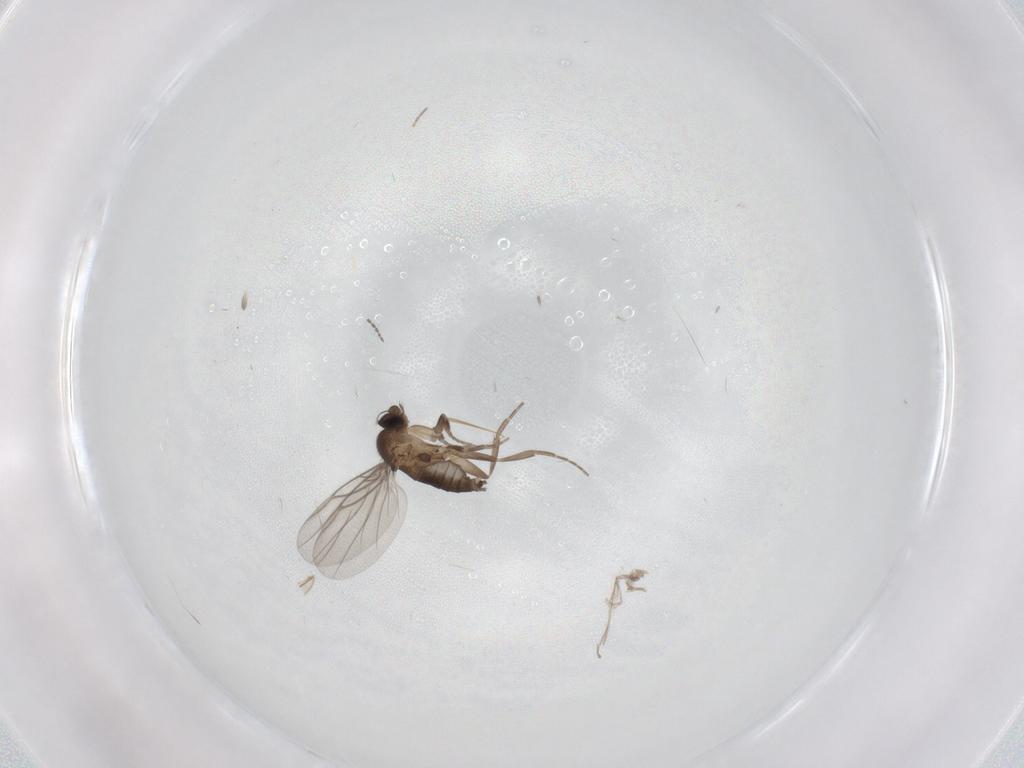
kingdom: Animalia
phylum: Arthropoda
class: Insecta
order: Diptera
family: Chironomidae
